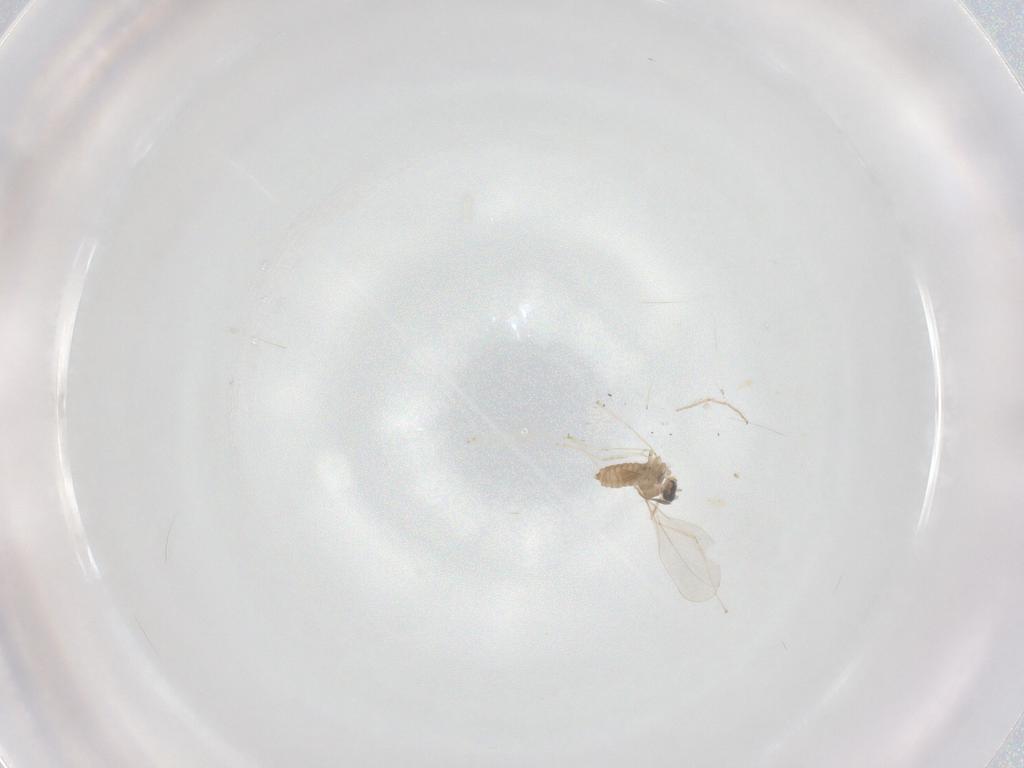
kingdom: Animalia
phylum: Arthropoda
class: Insecta
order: Diptera
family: Cecidomyiidae
